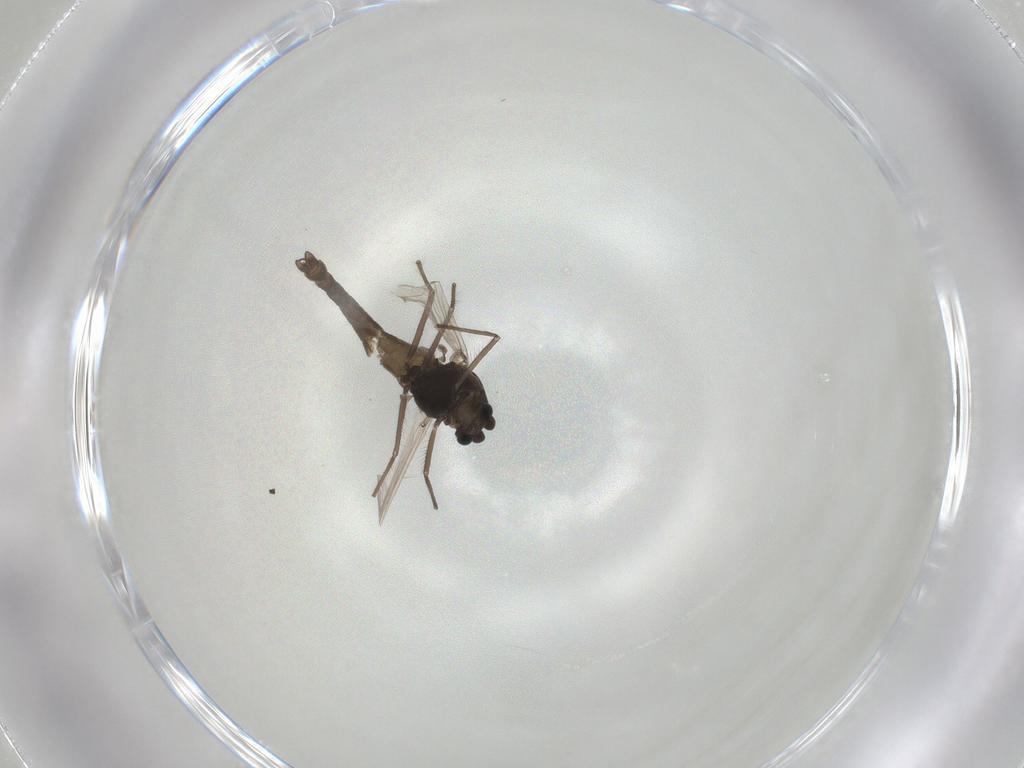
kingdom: Animalia
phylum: Arthropoda
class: Insecta
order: Diptera
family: Chironomidae
